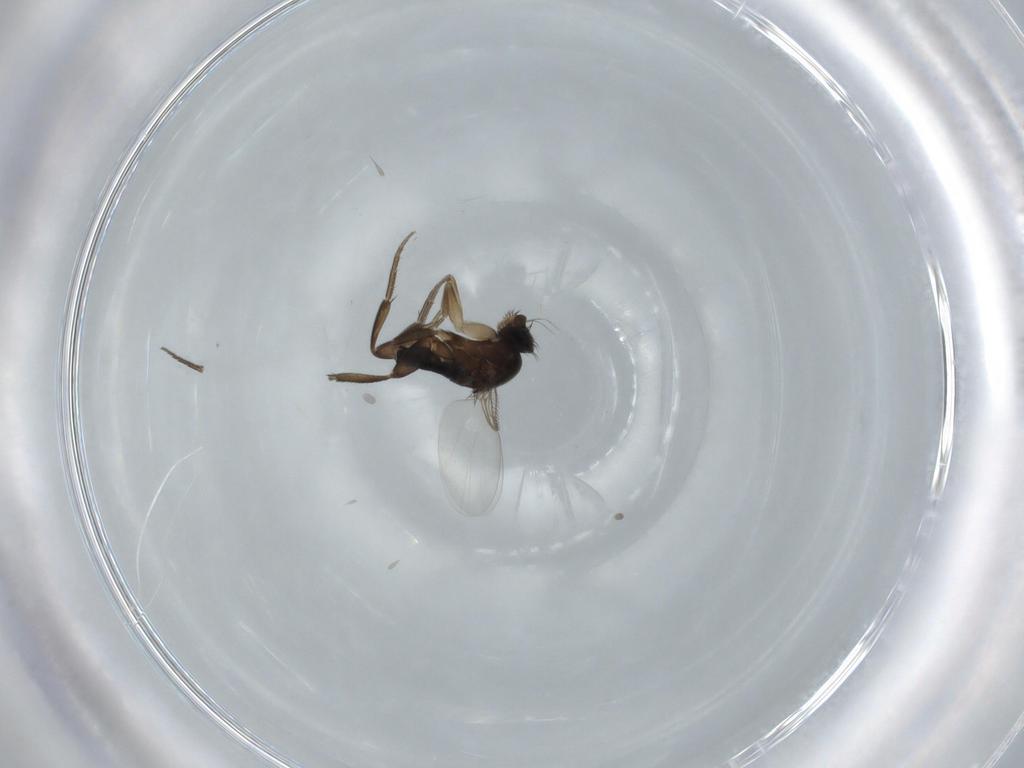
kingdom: Animalia
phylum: Arthropoda
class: Insecta
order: Diptera
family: Phoridae
